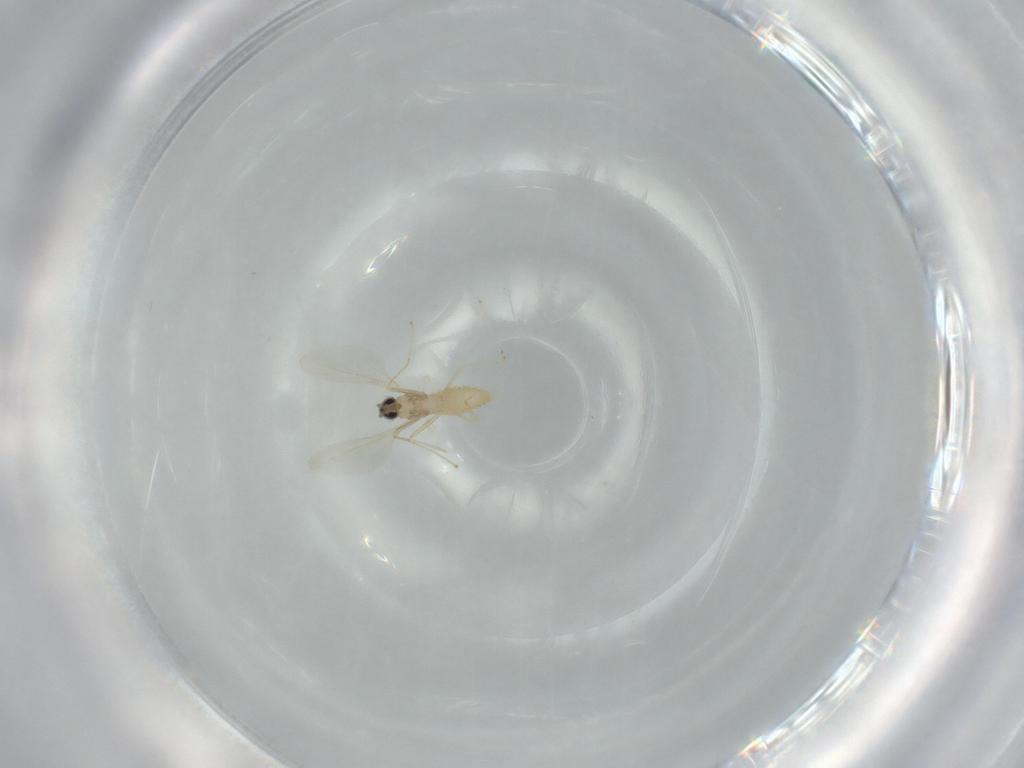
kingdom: Animalia
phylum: Arthropoda
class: Insecta
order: Diptera
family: Cecidomyiidae
